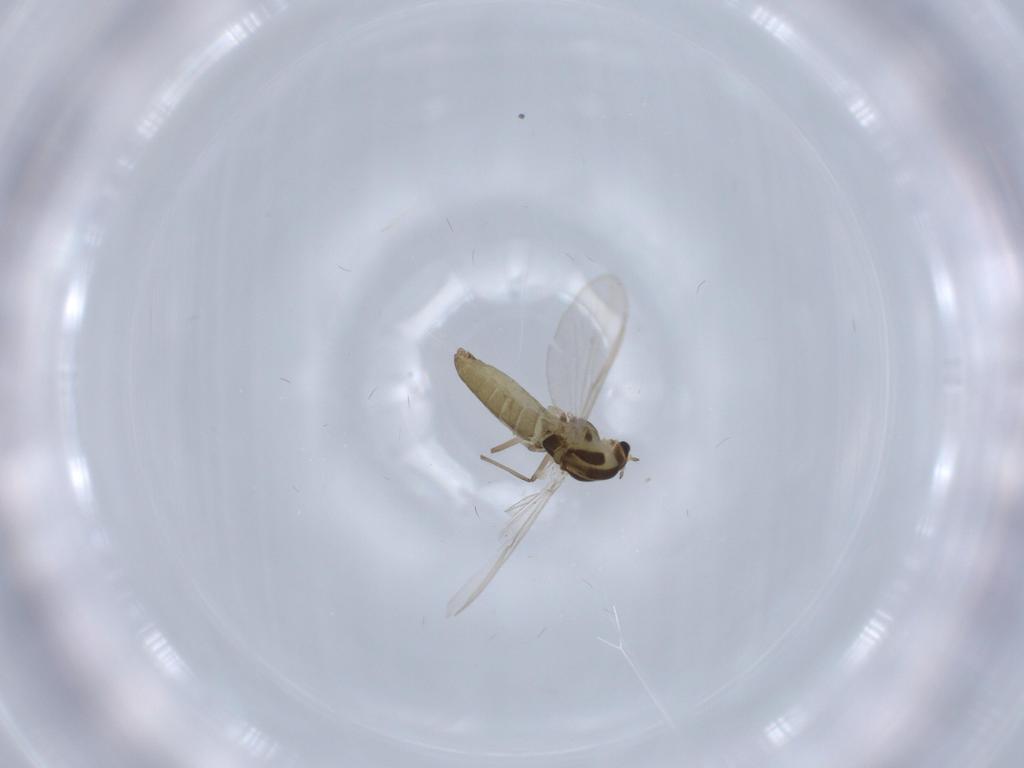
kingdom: Animalia
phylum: Arthropoda
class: Insecta
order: Diptera
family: Chironomidae
